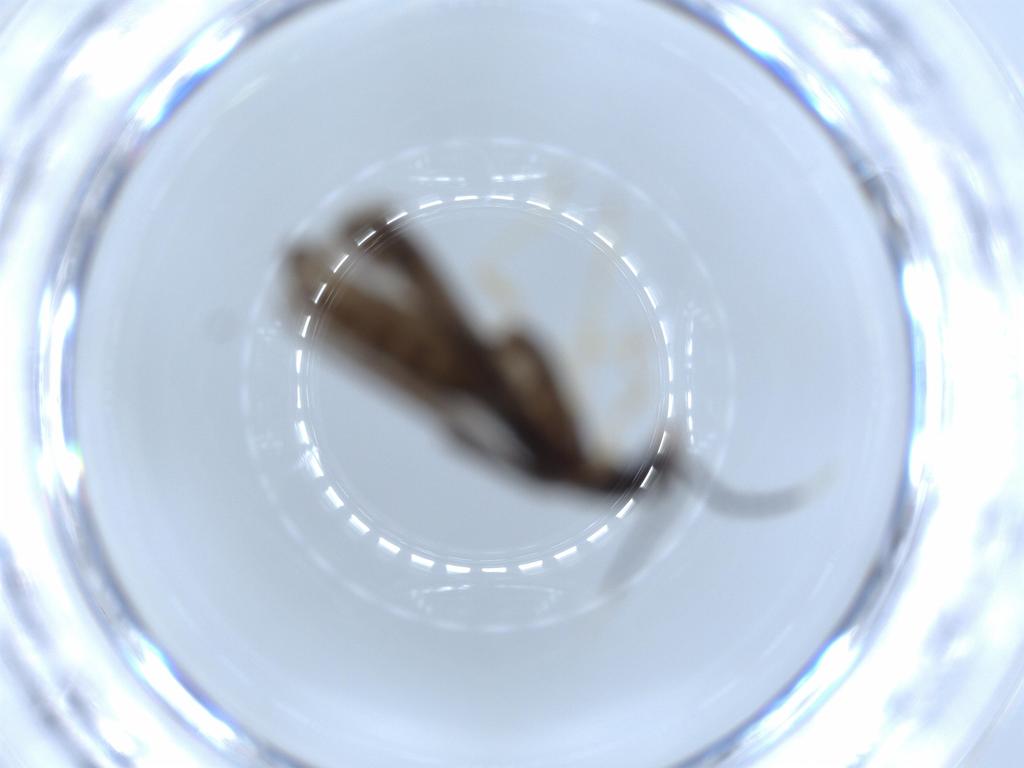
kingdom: Animalia
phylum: Arthropoda
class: Insecta
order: Coleoptera
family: Cantharidae
